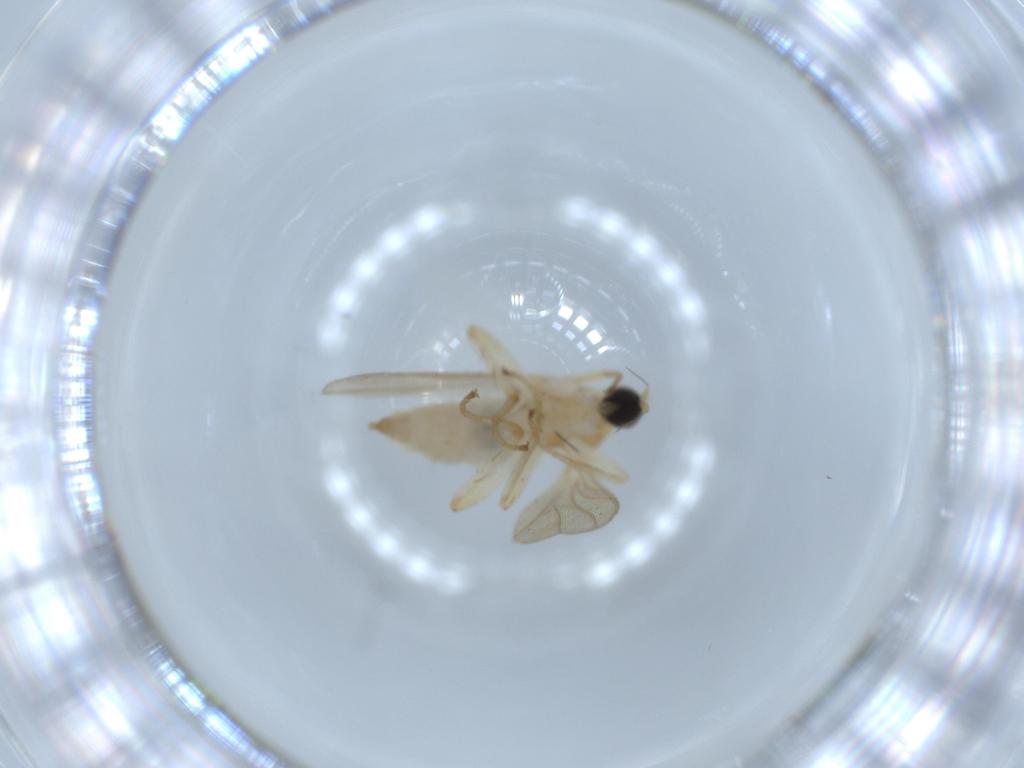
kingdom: Animalia
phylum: Arthropoda
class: Insecta
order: Diptera
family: Hybotidae
